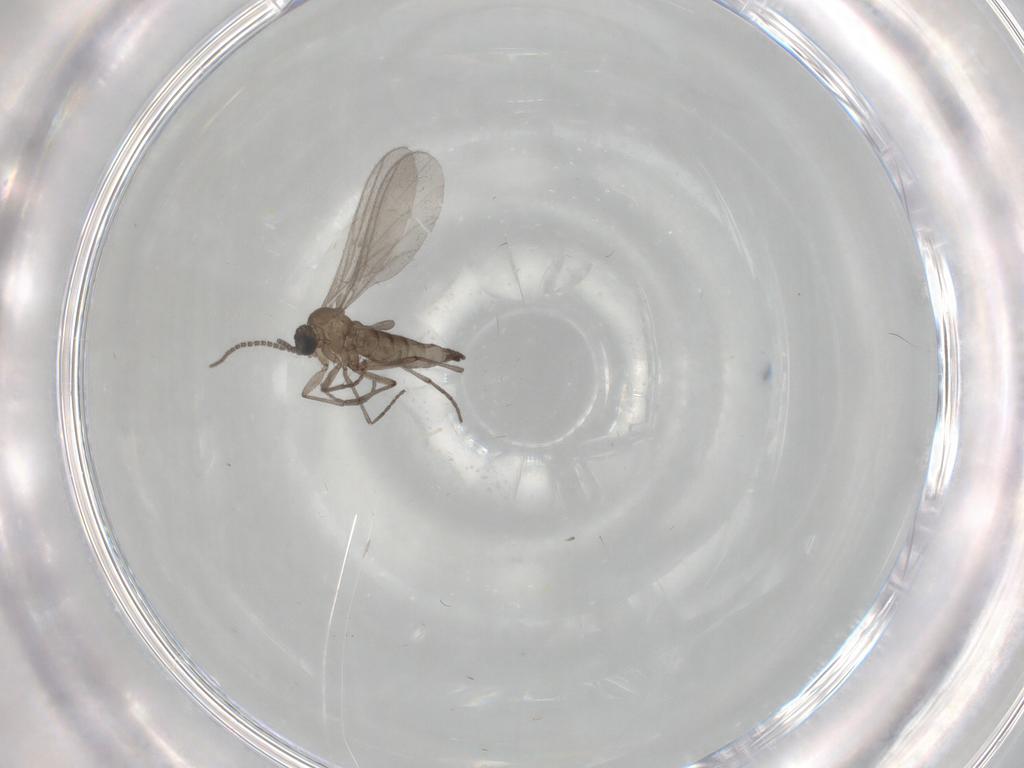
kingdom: Animalia
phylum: Arthropoda
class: Insecta
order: Diptera
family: Sciaridae
